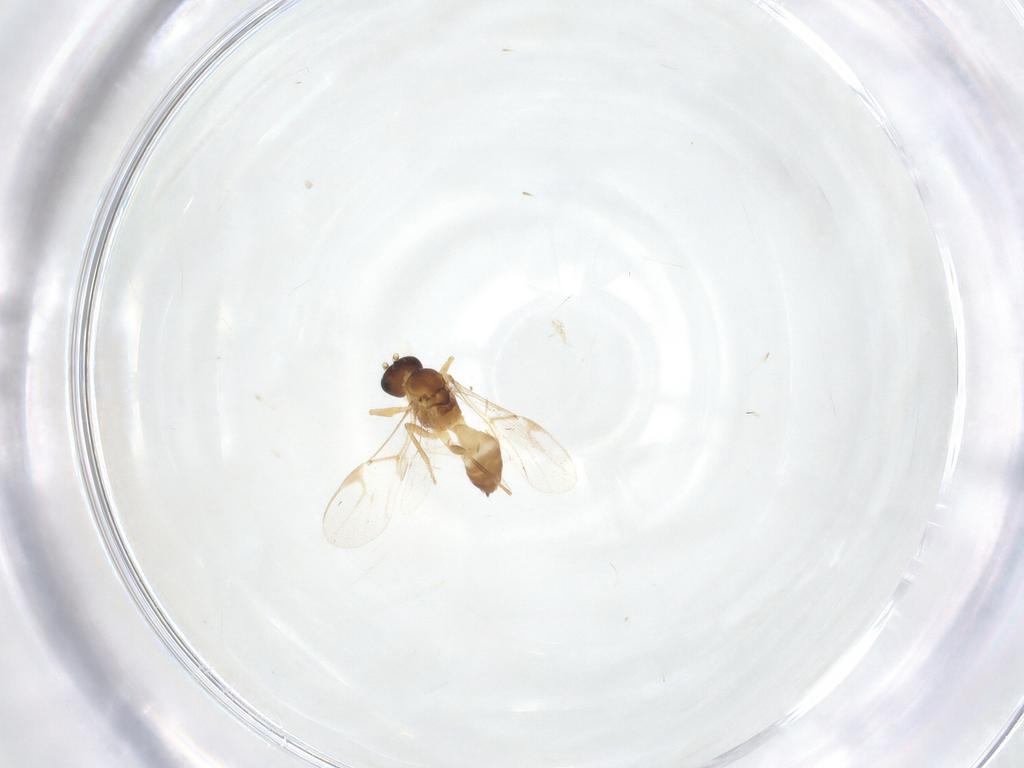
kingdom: Animalia
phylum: Arthropoda
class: Insecta
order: Hymenoptera
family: Braconidae
